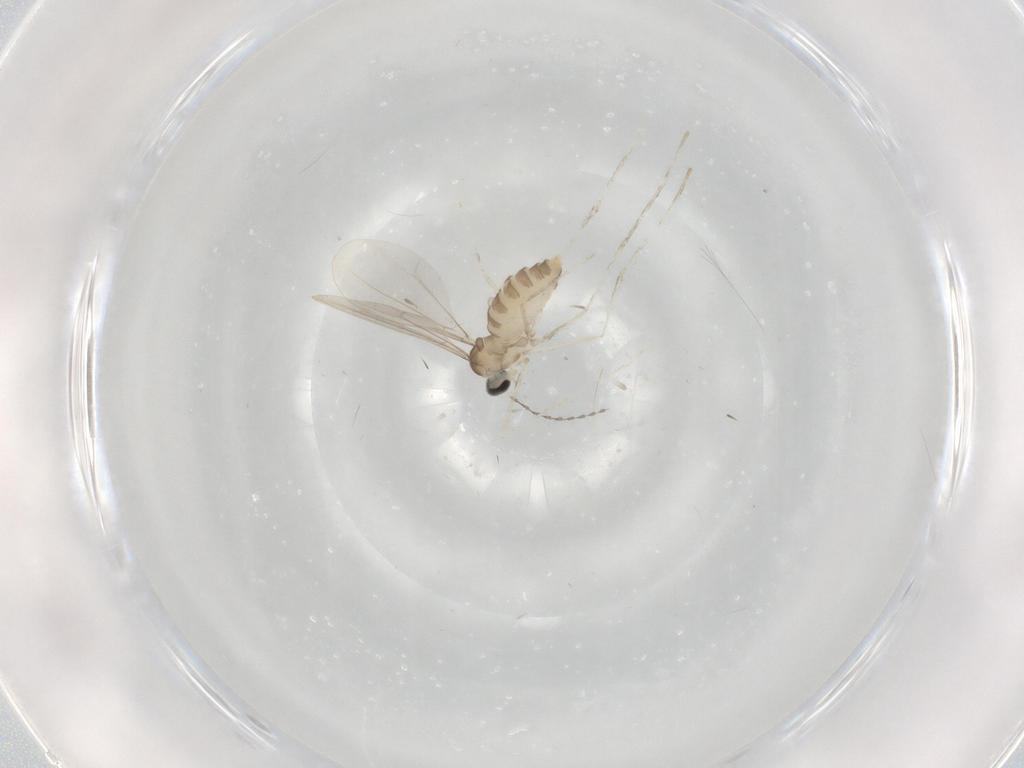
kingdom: Animalia
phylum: Arthropoda
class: Insecta
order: Diptera
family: Cecidomyiidae
